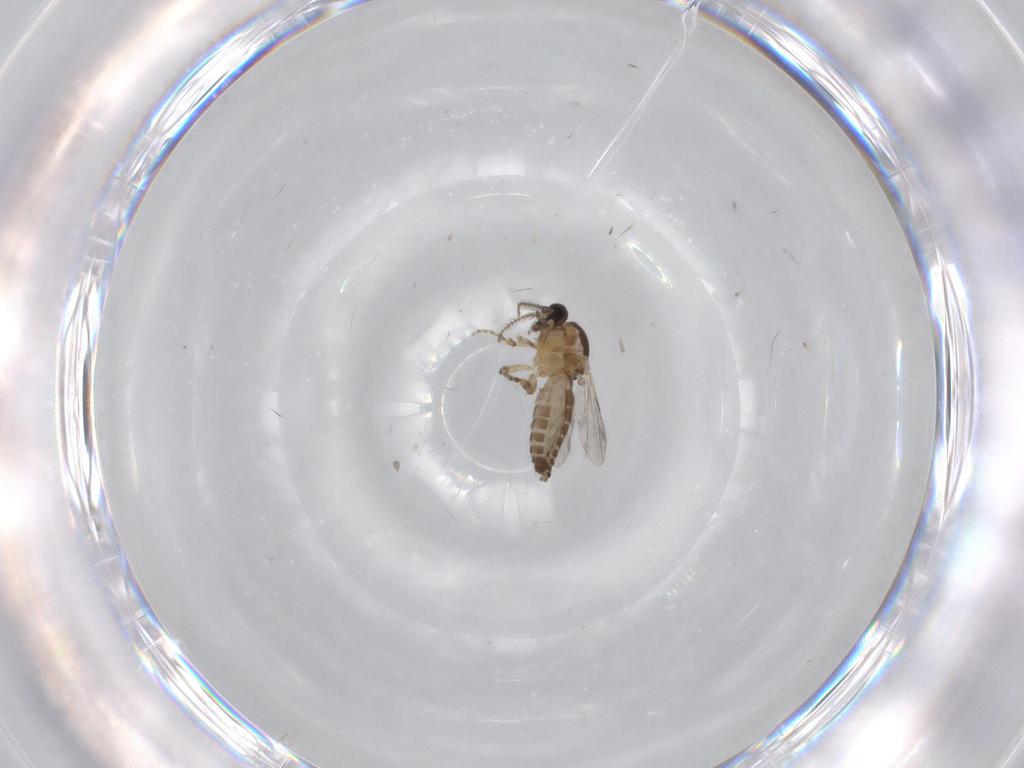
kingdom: Animalia
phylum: Arthropoda
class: Insecta
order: Diptera
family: Ceratopogonidae
